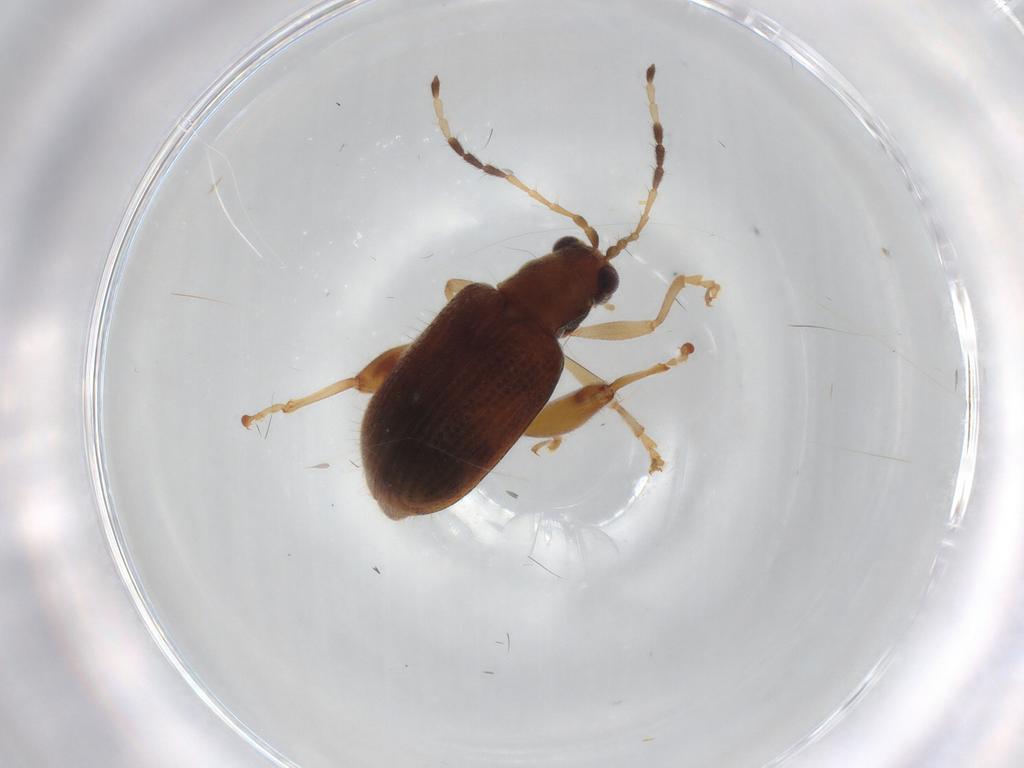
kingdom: Animalia
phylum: Arthropoda
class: Insecta
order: Coleoptera
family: Chrysomelidae
